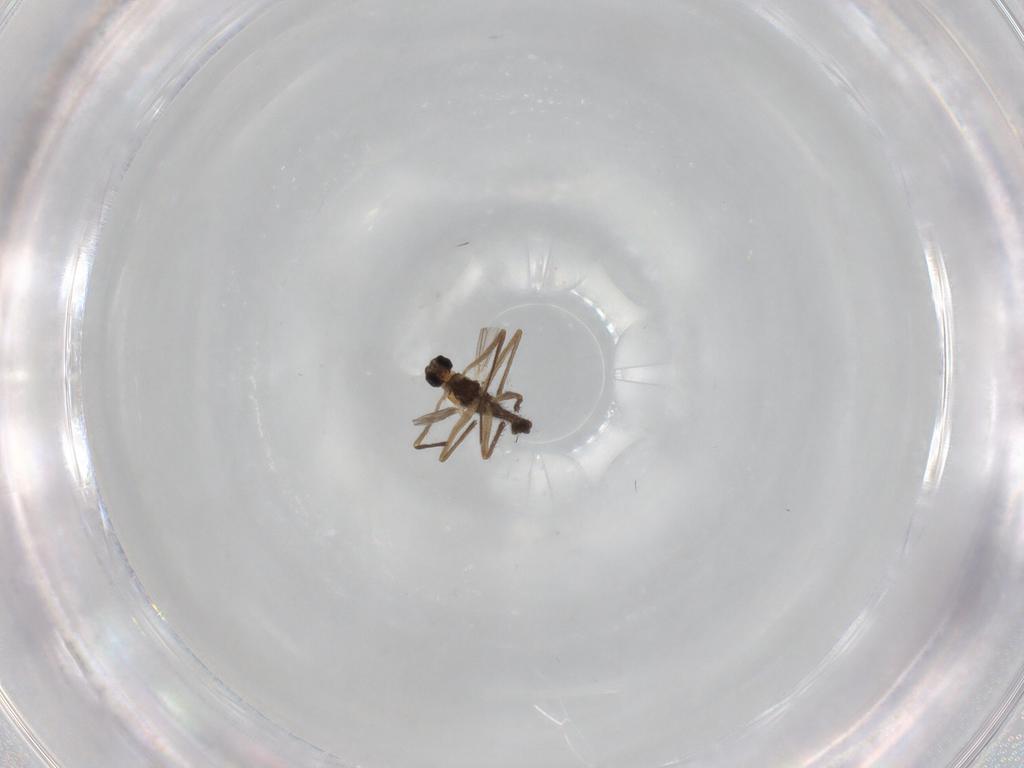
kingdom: Animalia
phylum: Arthropoda
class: Insecta
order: Diptera
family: Chironomidae
